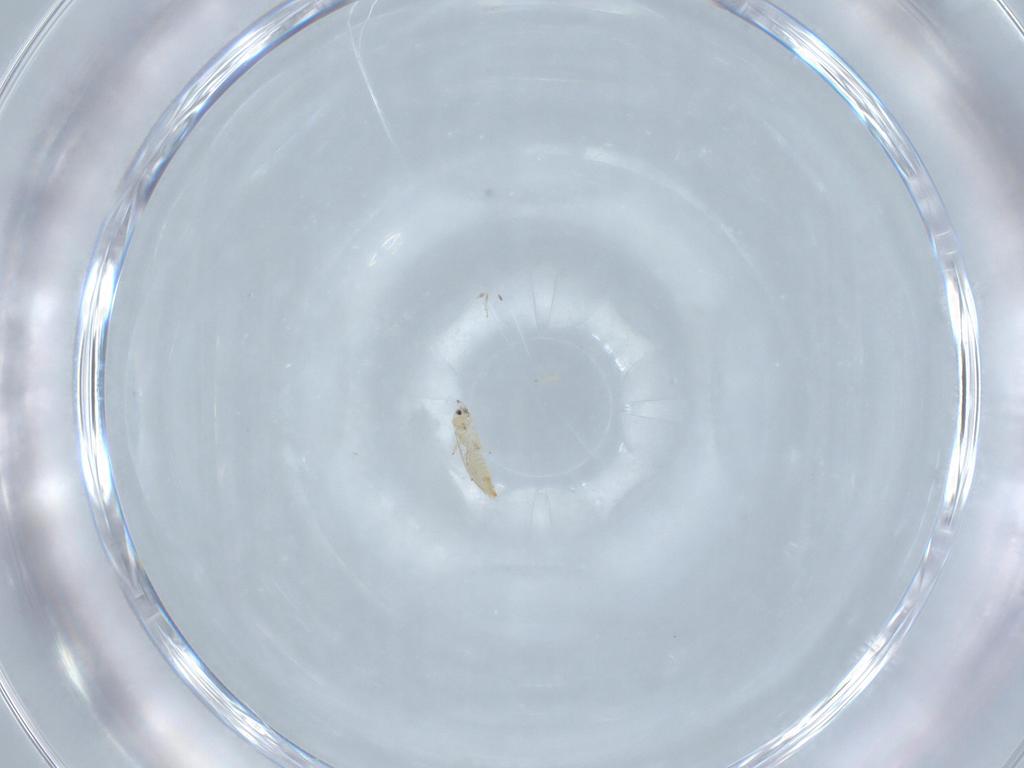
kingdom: Animalia
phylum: Arthropoda
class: Insecta
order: Thysanoptera
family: Thripidae
